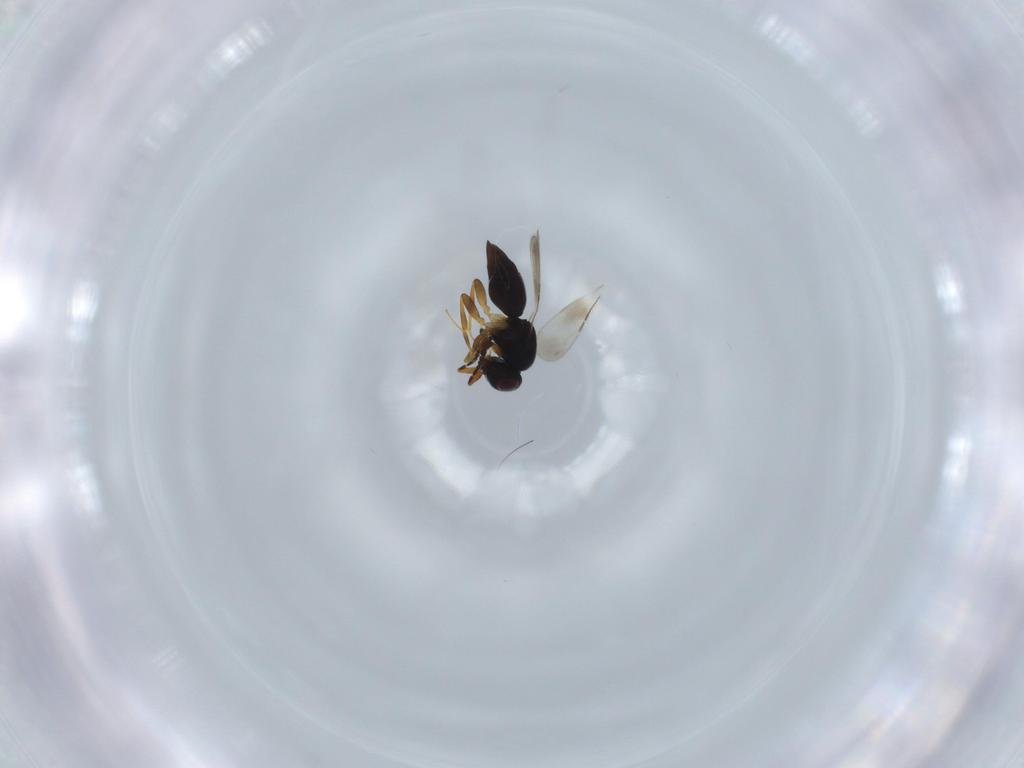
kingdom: Animalia
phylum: Arthropoda
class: Insecta
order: Hymenoptera
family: Ceraphronidae
